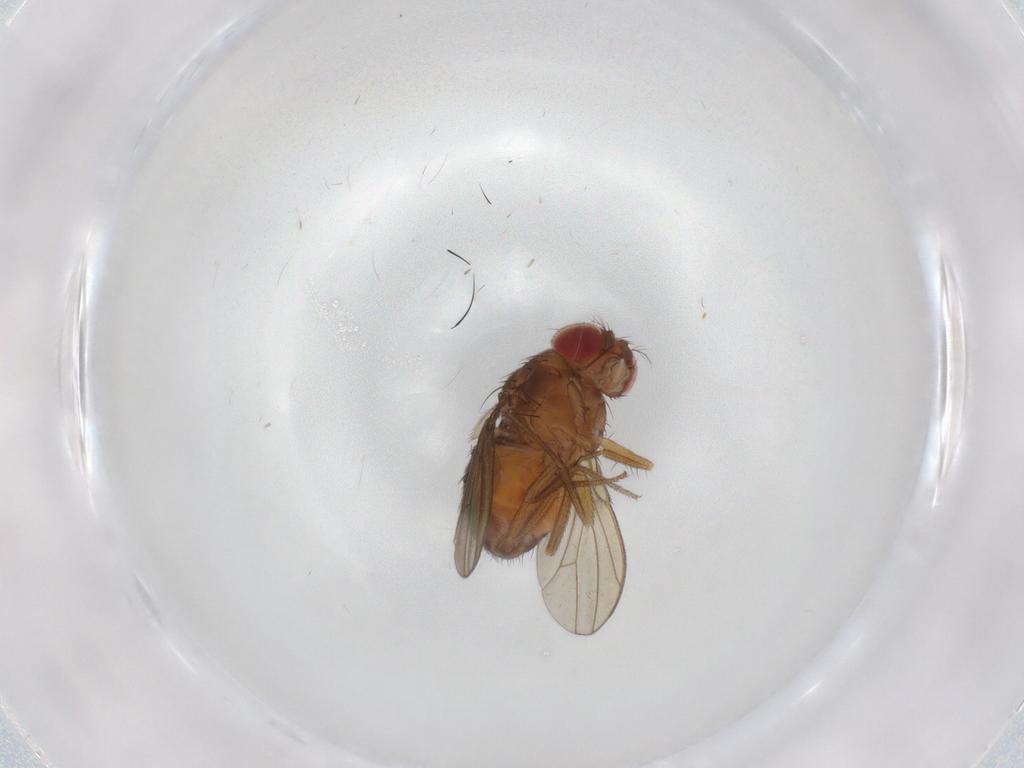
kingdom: Animalia
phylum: Arthropoda
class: Insecta
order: Diptera
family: Drosophilidae
